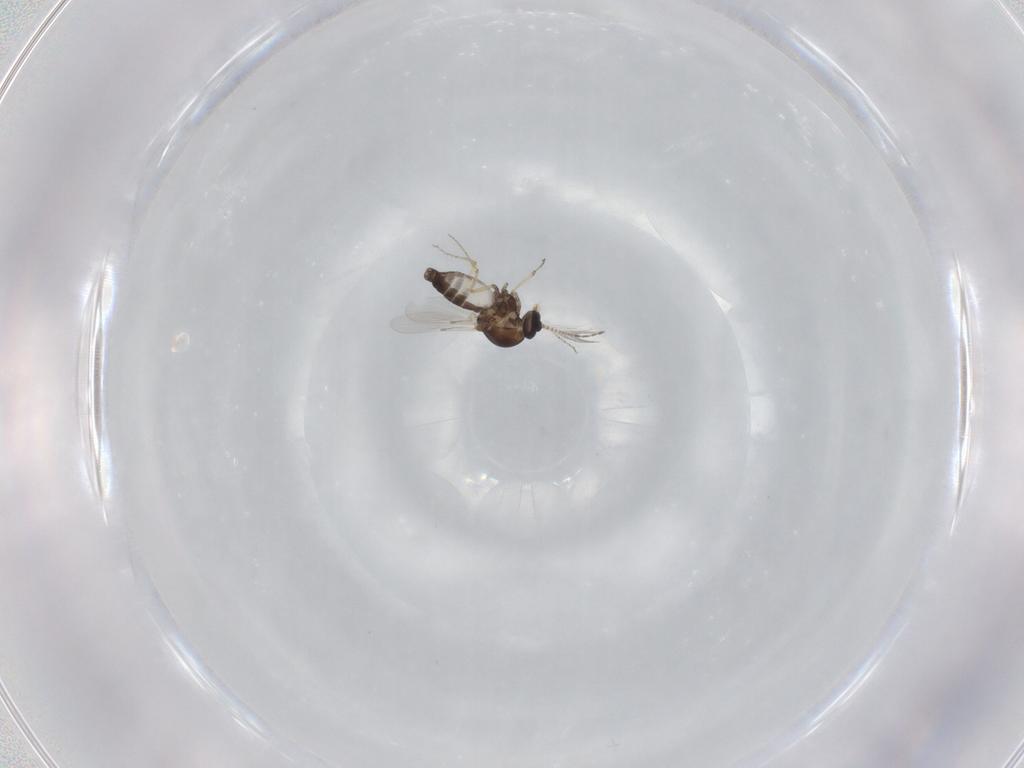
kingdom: Animalia
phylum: Arthropoda
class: Insecta
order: Diptera
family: Ceratopogonidae
